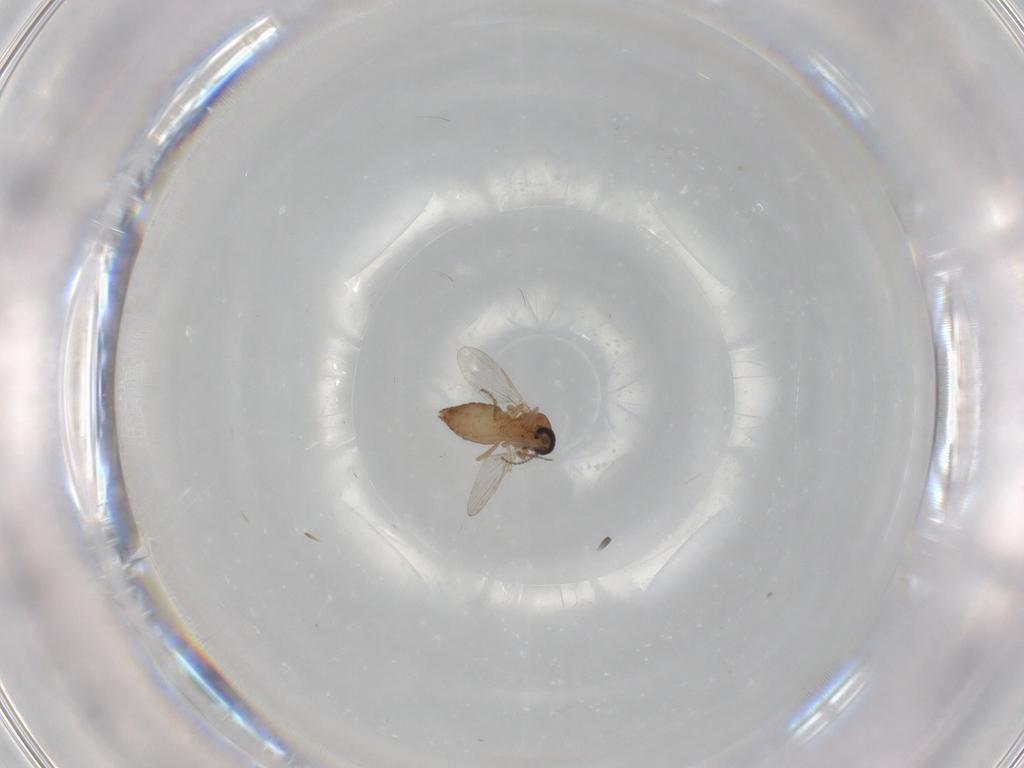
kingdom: Animalia
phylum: Arthropoda
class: Insecta
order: Diptera
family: Ceratopogonidae
